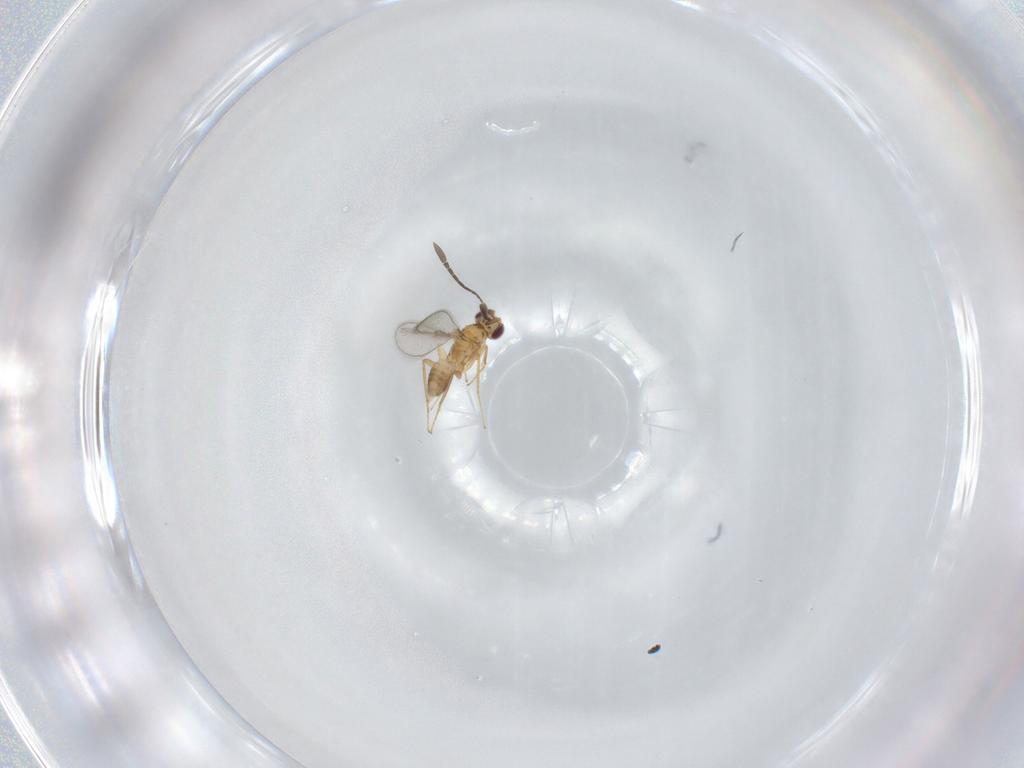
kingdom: Animalia
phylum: Arthropoda
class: Insecta
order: Hymenoptera
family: Mymaridae
